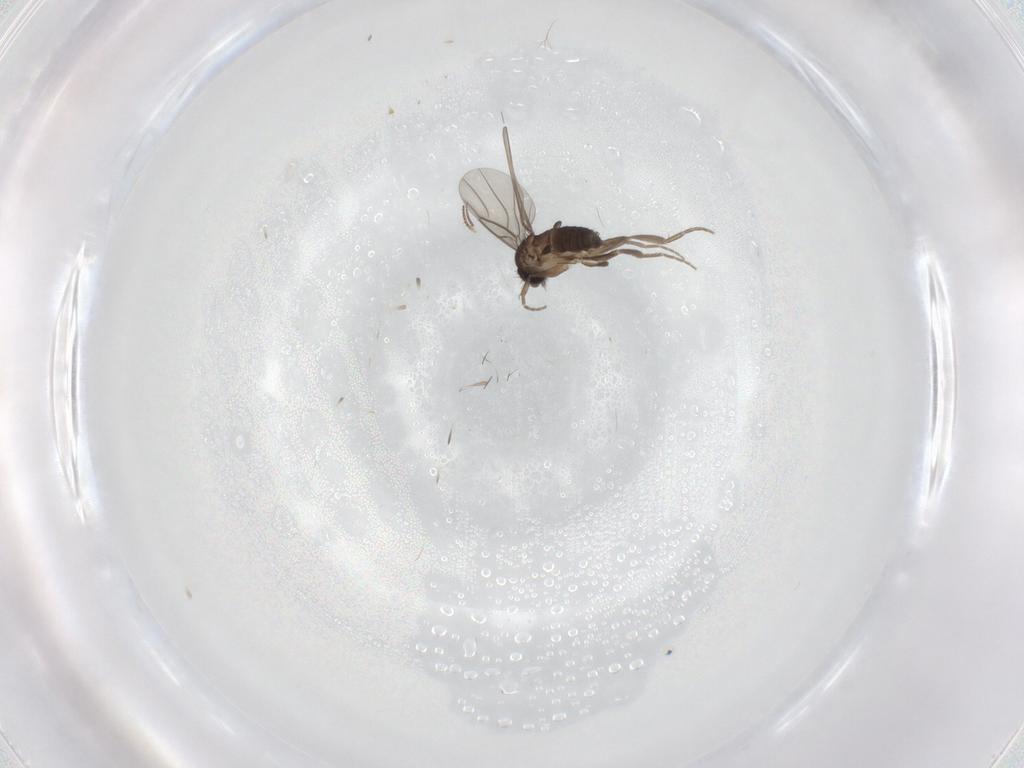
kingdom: Animalia
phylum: Arthropoda
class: Insecta
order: Diptera
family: Phoridae
